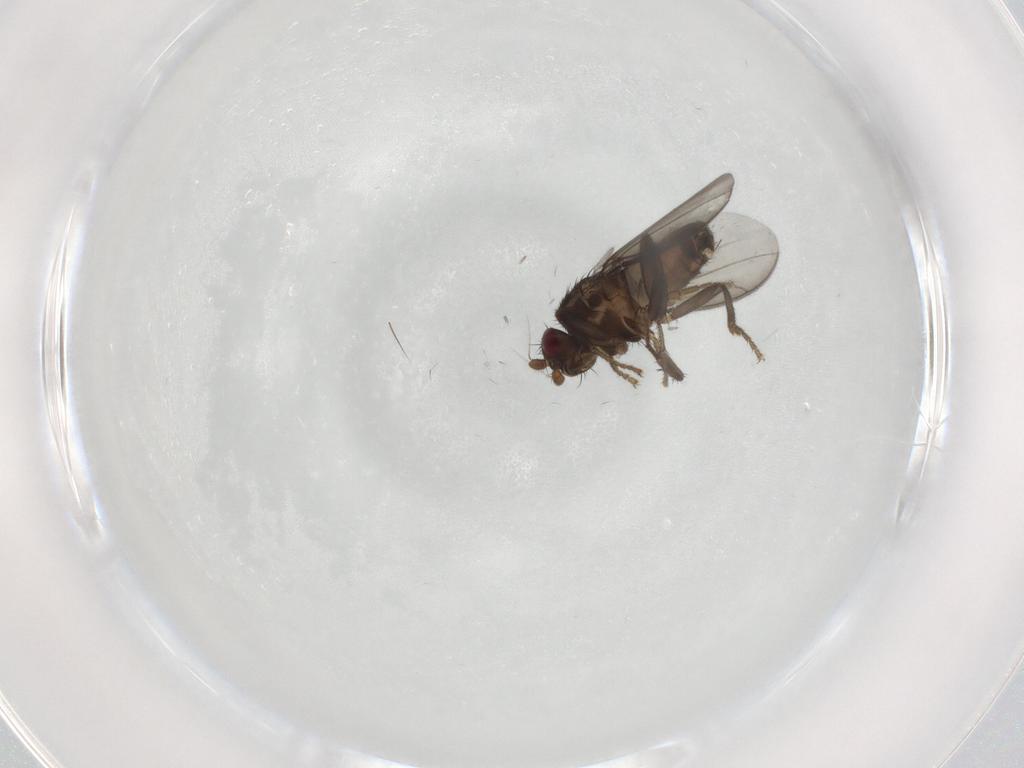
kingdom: Animalia
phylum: Arthropoda
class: Insecta
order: Diptera
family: Sphaeroceridae
